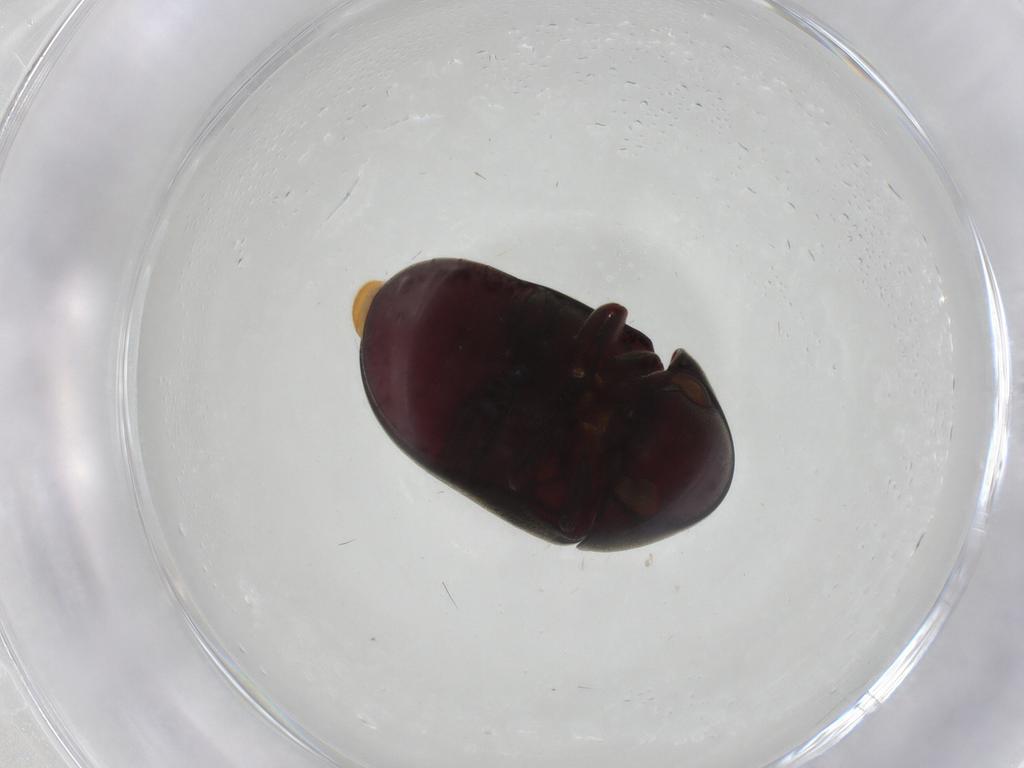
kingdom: Animalia
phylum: Arthropoda
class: Insecta
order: Coleoptera
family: Ptinidae
